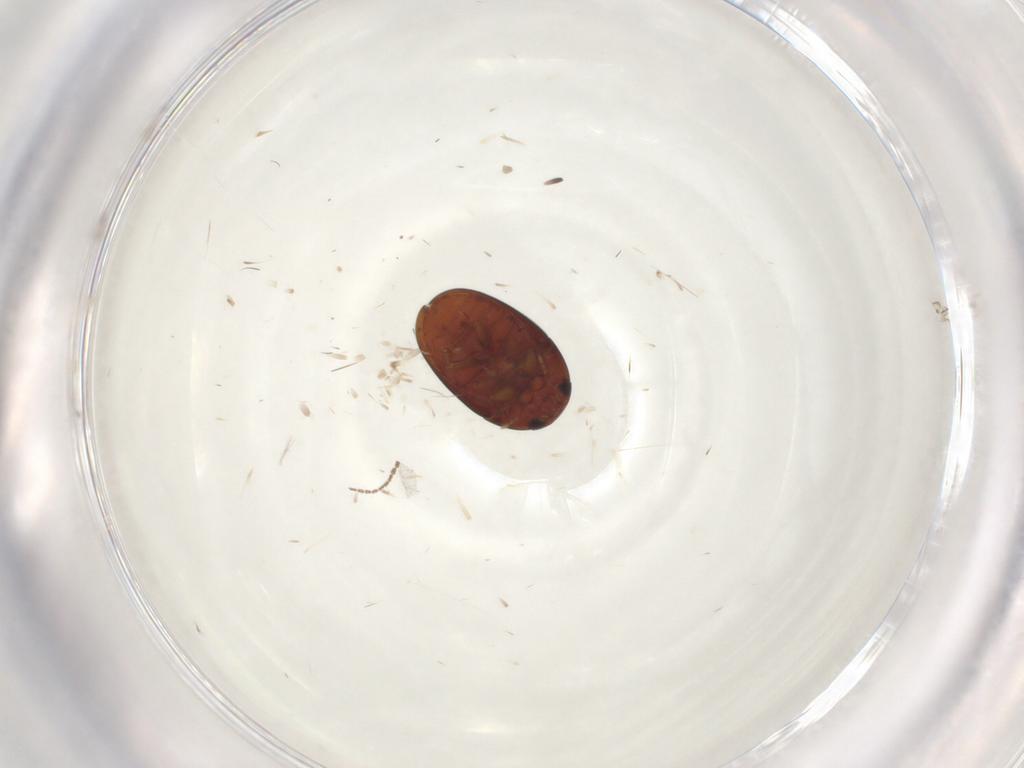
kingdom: Animalia
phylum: Arthropoda
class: Insecta
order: Coleoptera
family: Phalacridae
